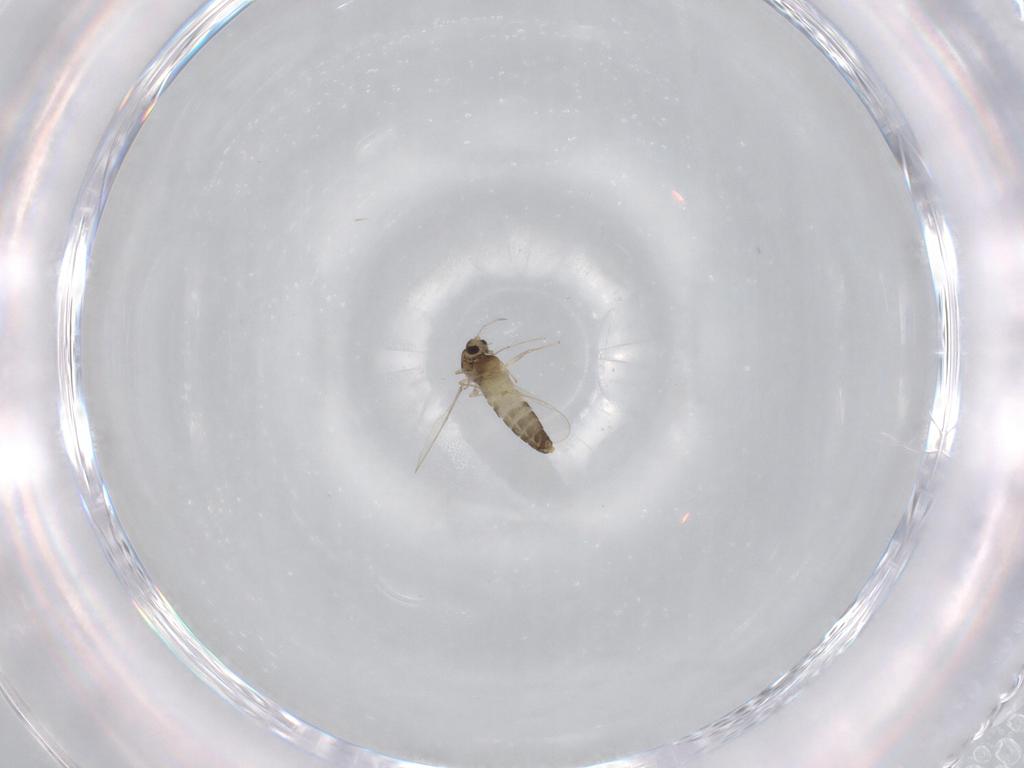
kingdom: Animalia
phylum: Arthropoda
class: Insecta
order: Diptera
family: Chironomidae
